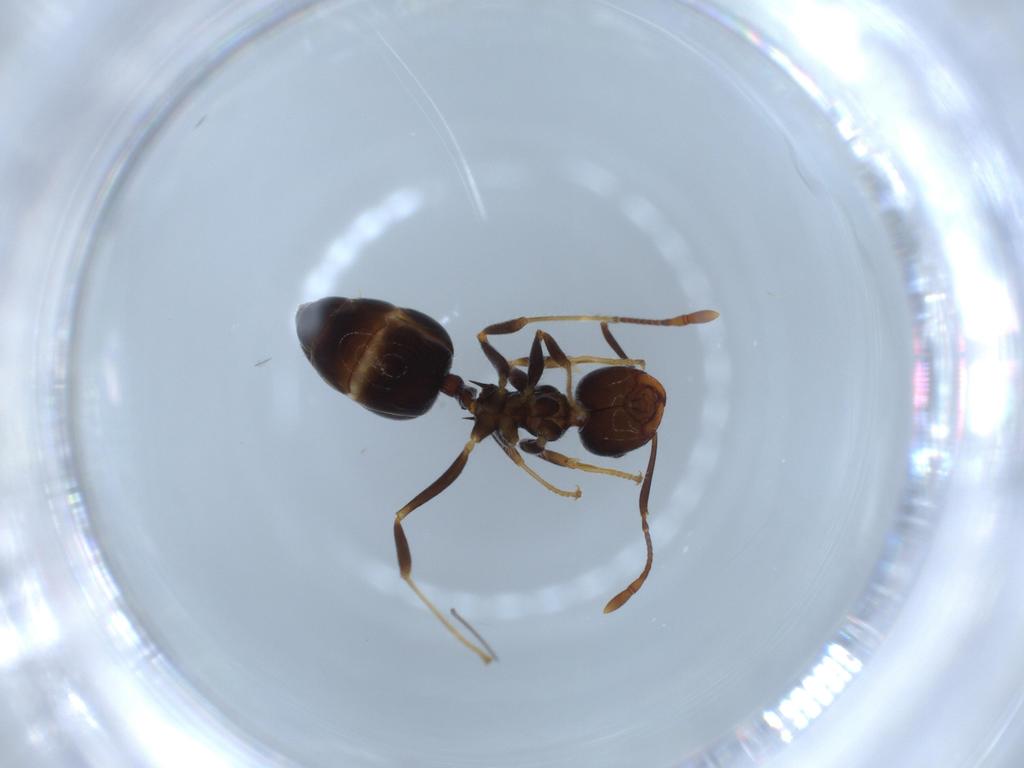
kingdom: Animalia
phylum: Arthropoda
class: Insecta
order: Hymenoptera
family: Formicidae
